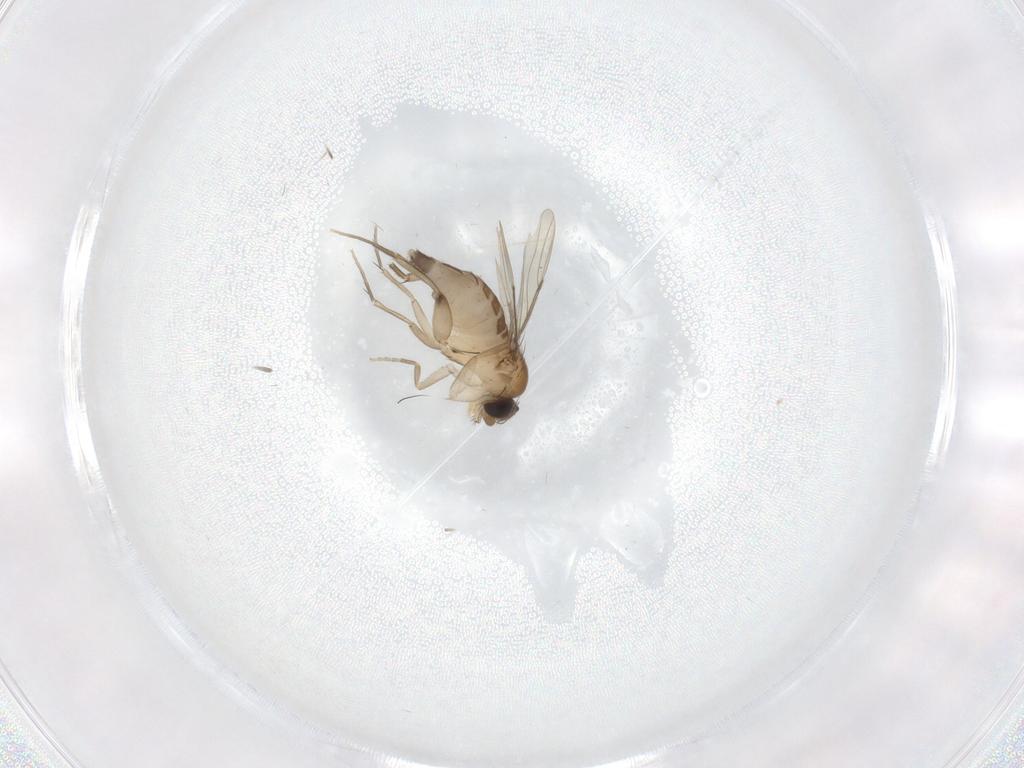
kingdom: Animalia
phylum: Arthropoda
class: Insecta
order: Diptera
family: Phoridae
